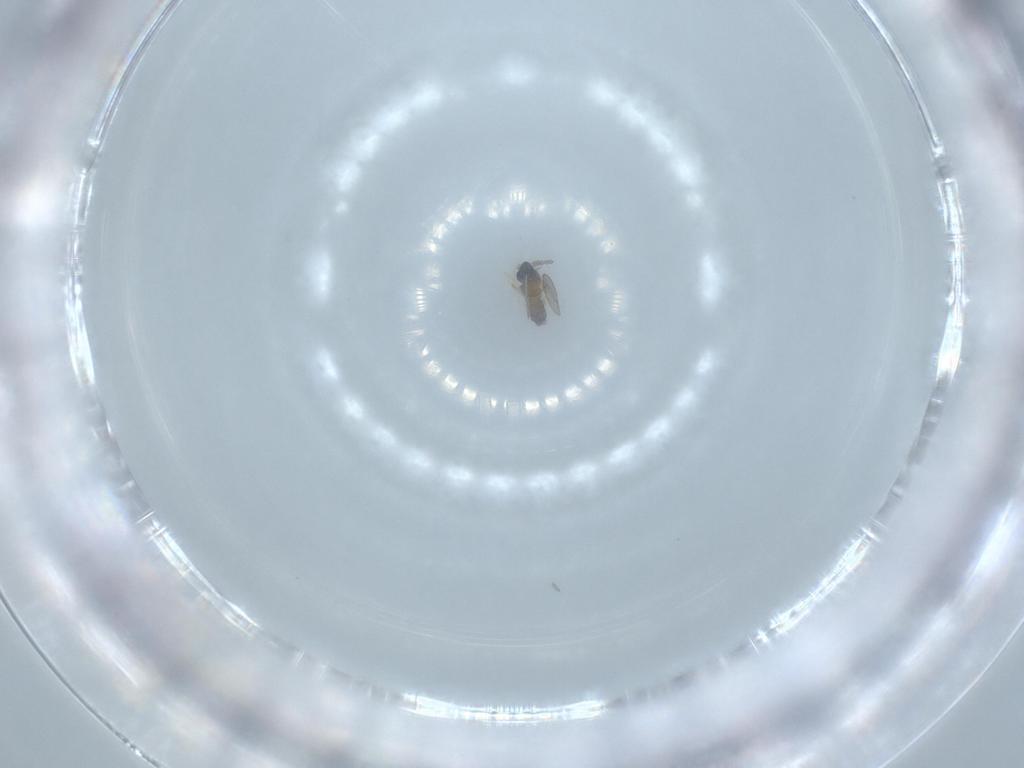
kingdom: Animalia
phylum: Arthropoda
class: Insecta
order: Diptera
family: Cecidomyiidae
